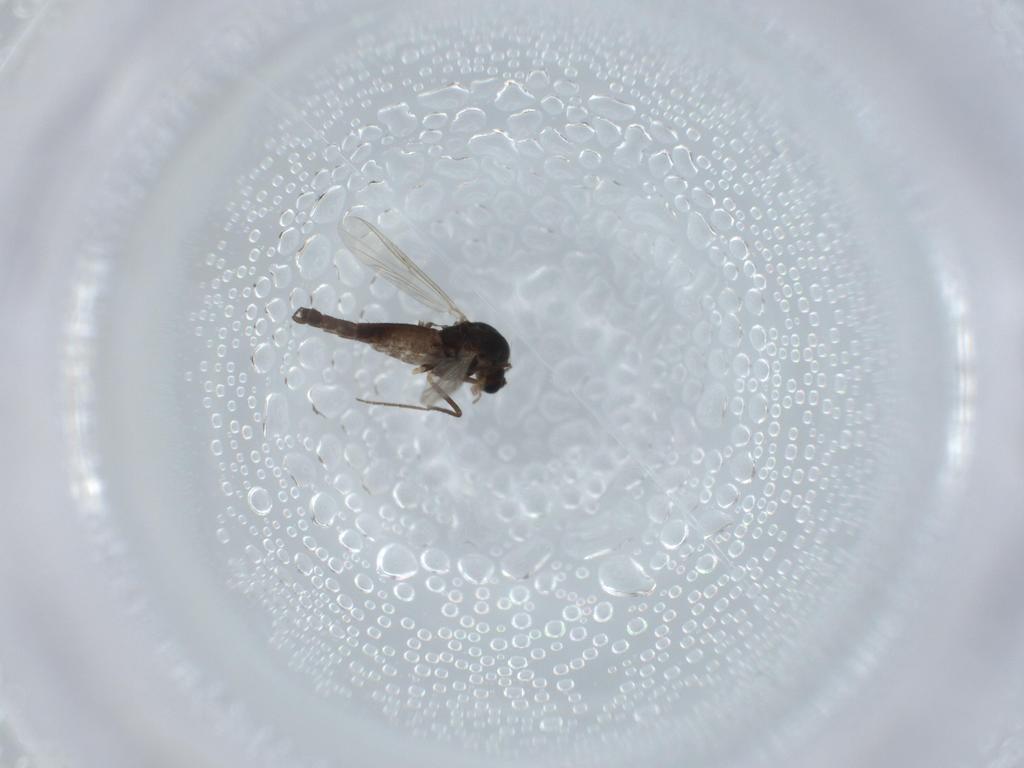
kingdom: Animalia
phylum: Arthropoda
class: Insecta
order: Diptera
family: Chironomidae
